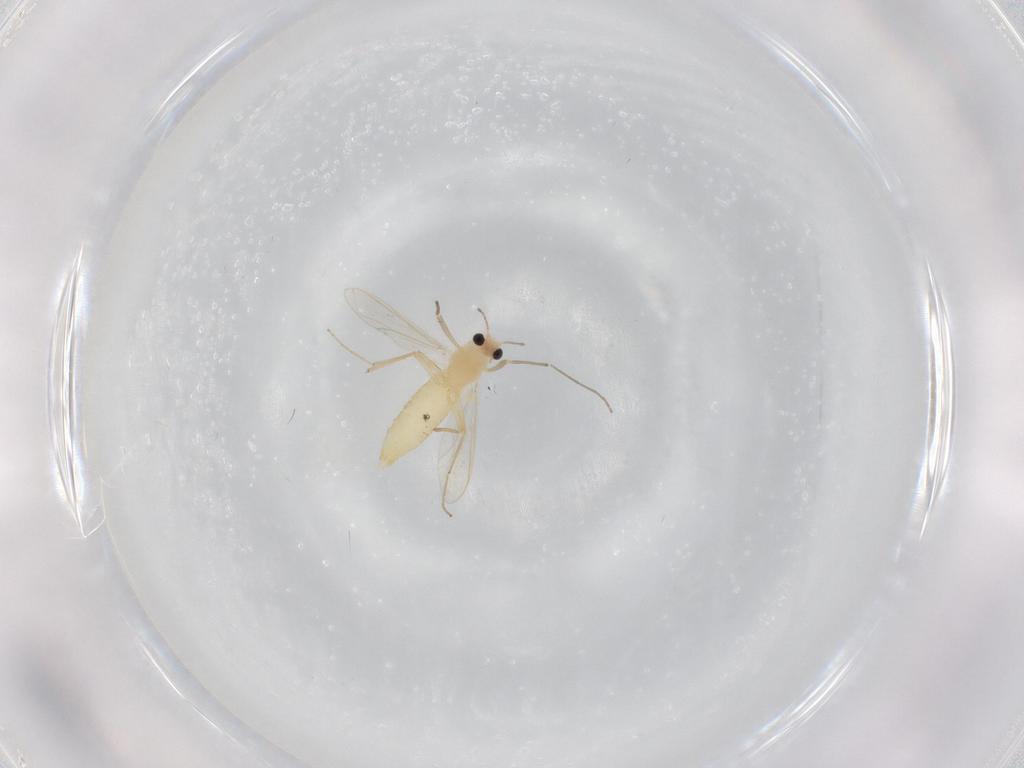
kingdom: Animalia
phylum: Arthropoda
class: Insecta
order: Diptera
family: Chironomidae
